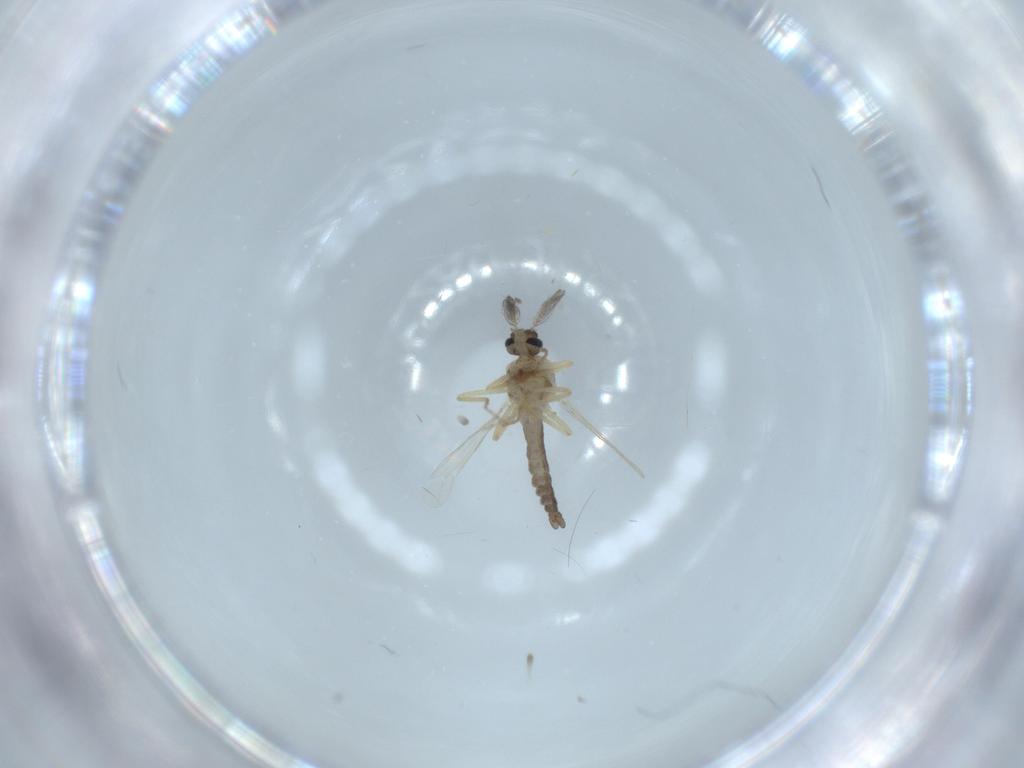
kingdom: Animalia
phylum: Arthropoda
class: Insecta
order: Diptera
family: Ceratopogonidae
